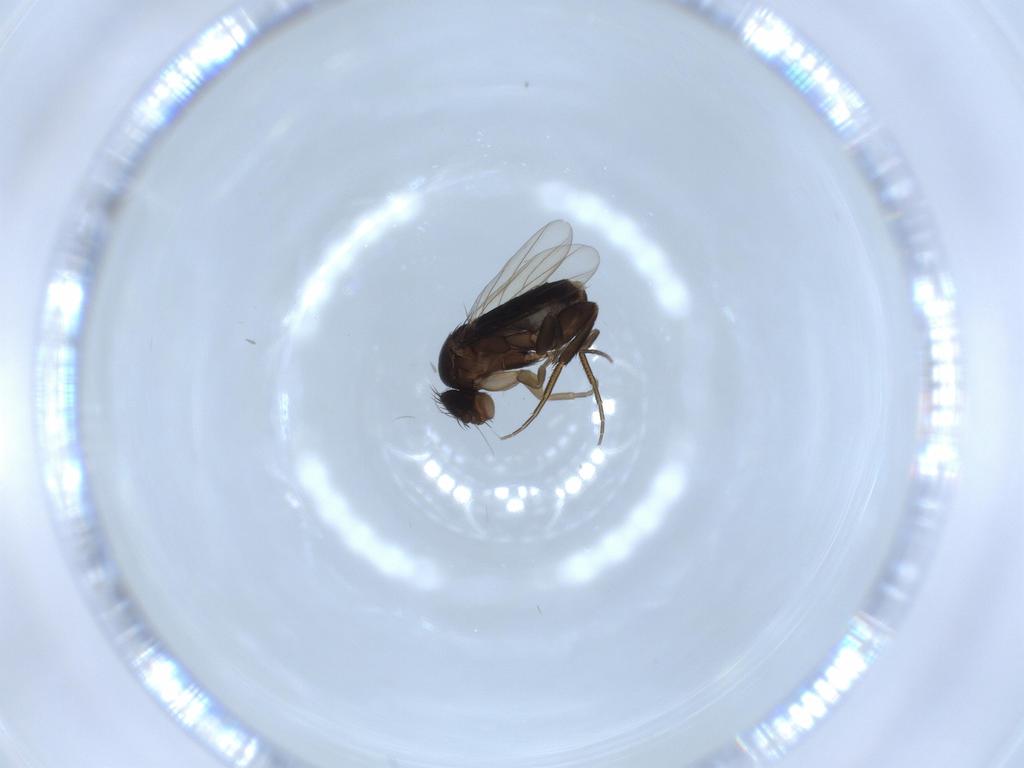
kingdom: Animalia
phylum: Arthropoda
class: Insecta
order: Diptera
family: Phoridae
